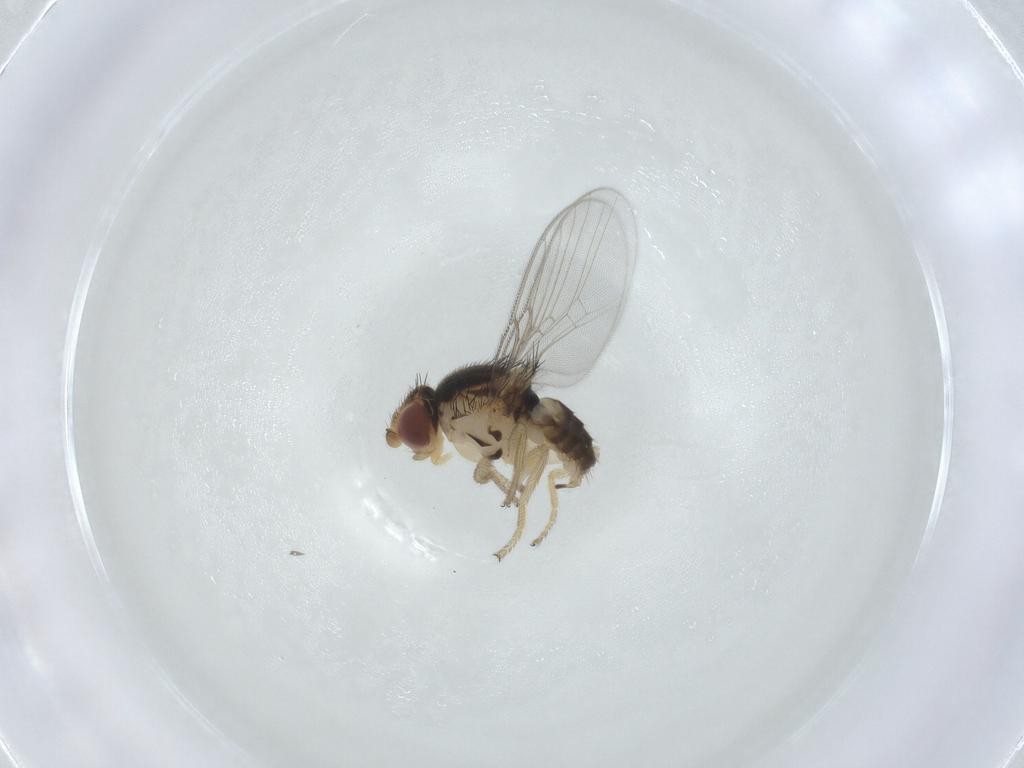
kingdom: Animalia
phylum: Arthropoda
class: Insecta
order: Diptera
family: Chloropidae
